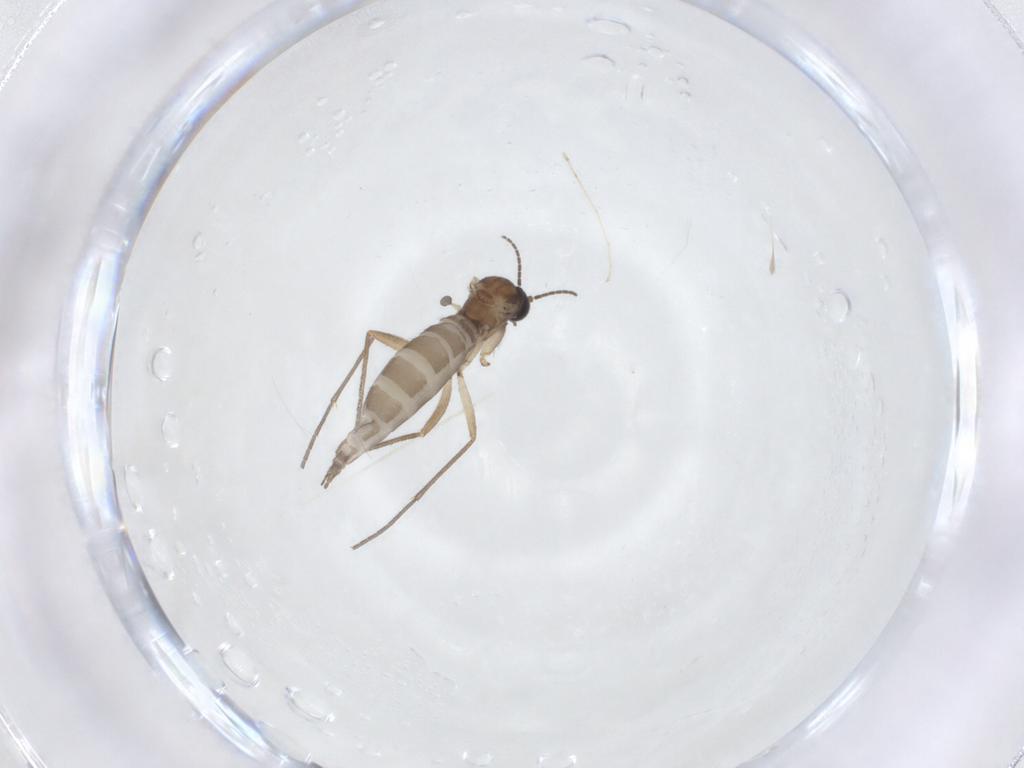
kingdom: Animalia
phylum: Arthropoda
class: Insecta
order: Diptera
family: Sciaridae
